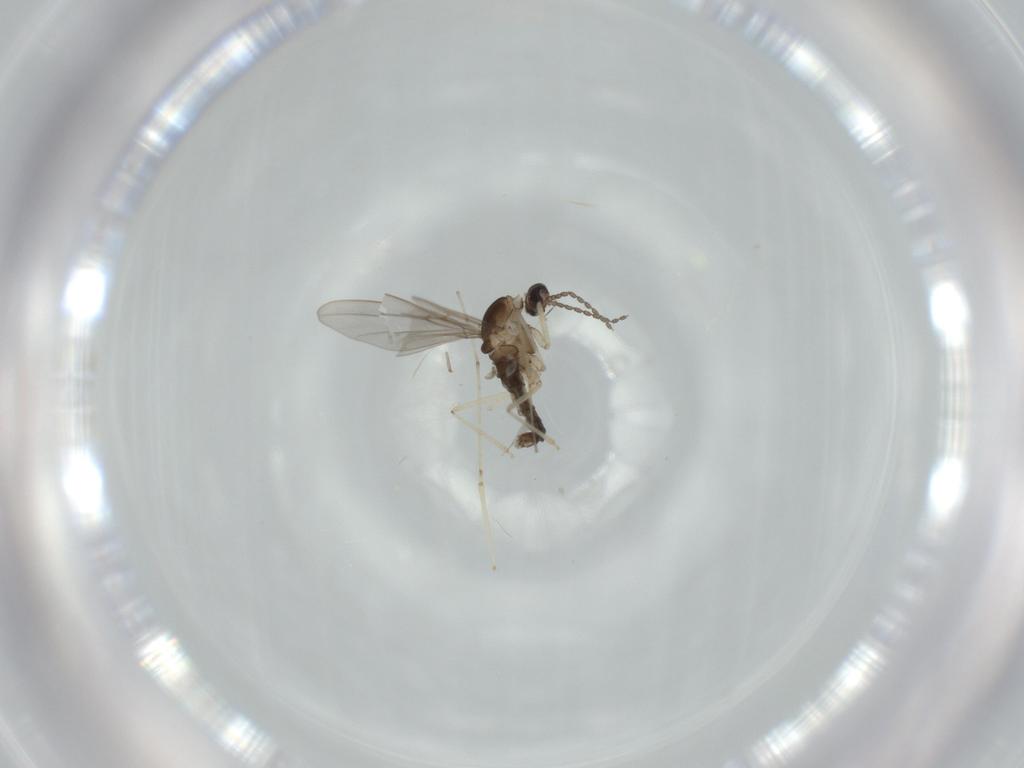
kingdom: Animalia
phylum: Arthropoda
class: Insecta
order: Diptera
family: Cecidomyiidae
